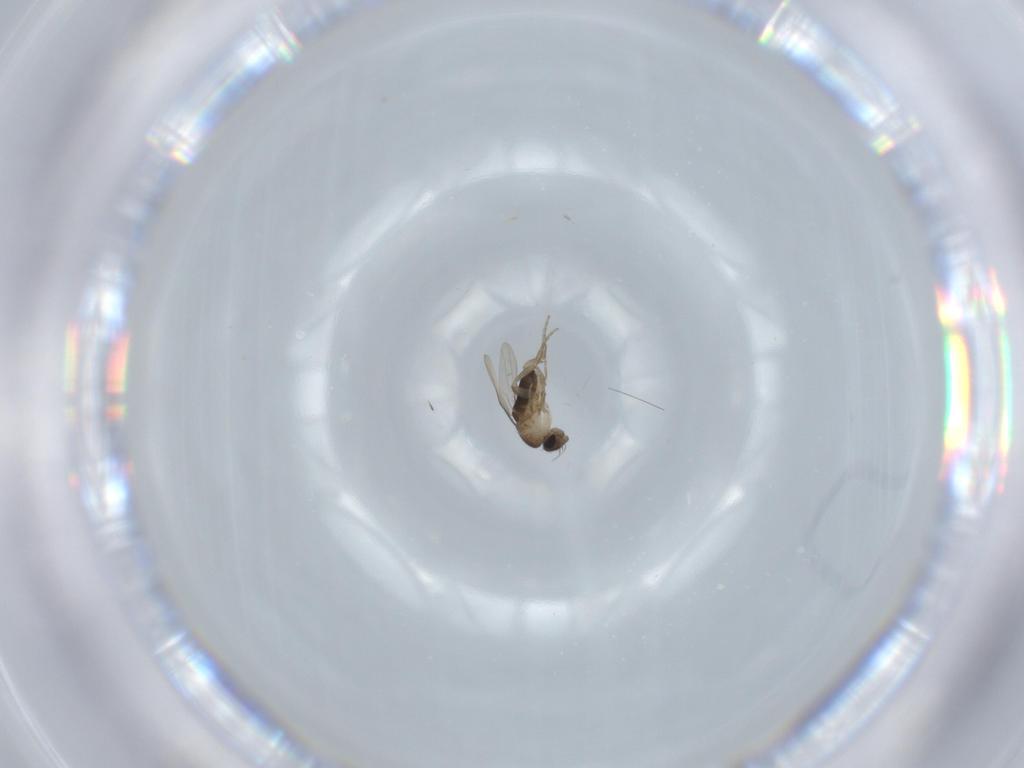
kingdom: Animalia
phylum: Arthropoda
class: Insecta
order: Diptera
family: Phoridae
